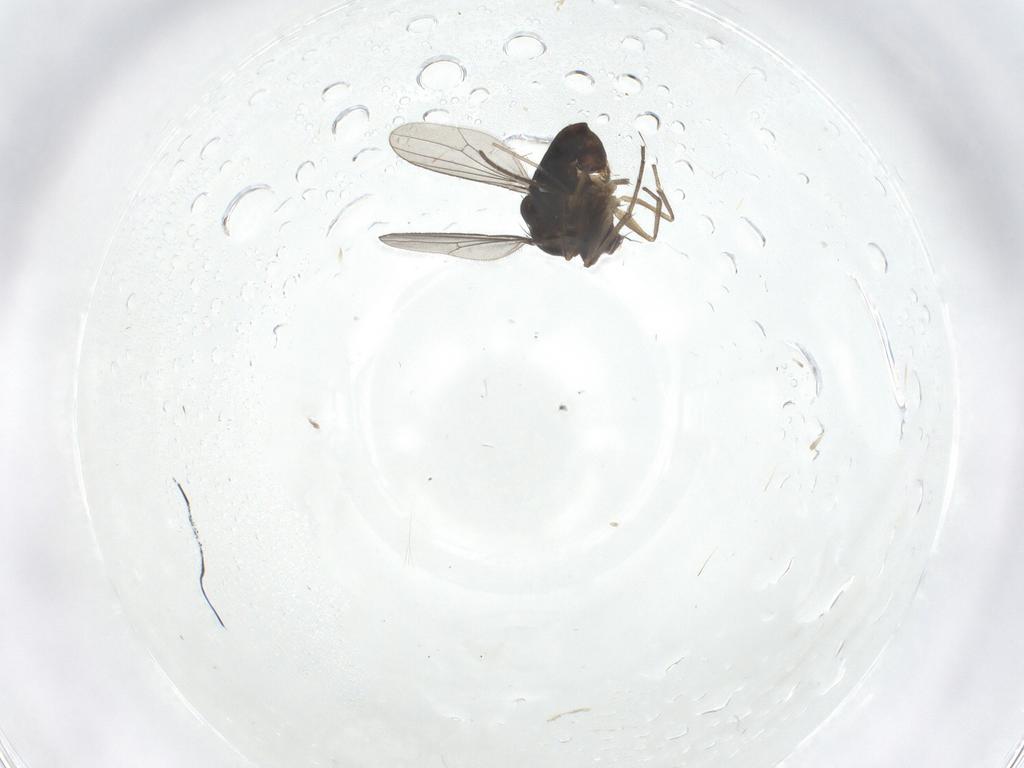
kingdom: Animalia
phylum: Arthropoda
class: Insecta
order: Diptera
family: Dolichopodidae
